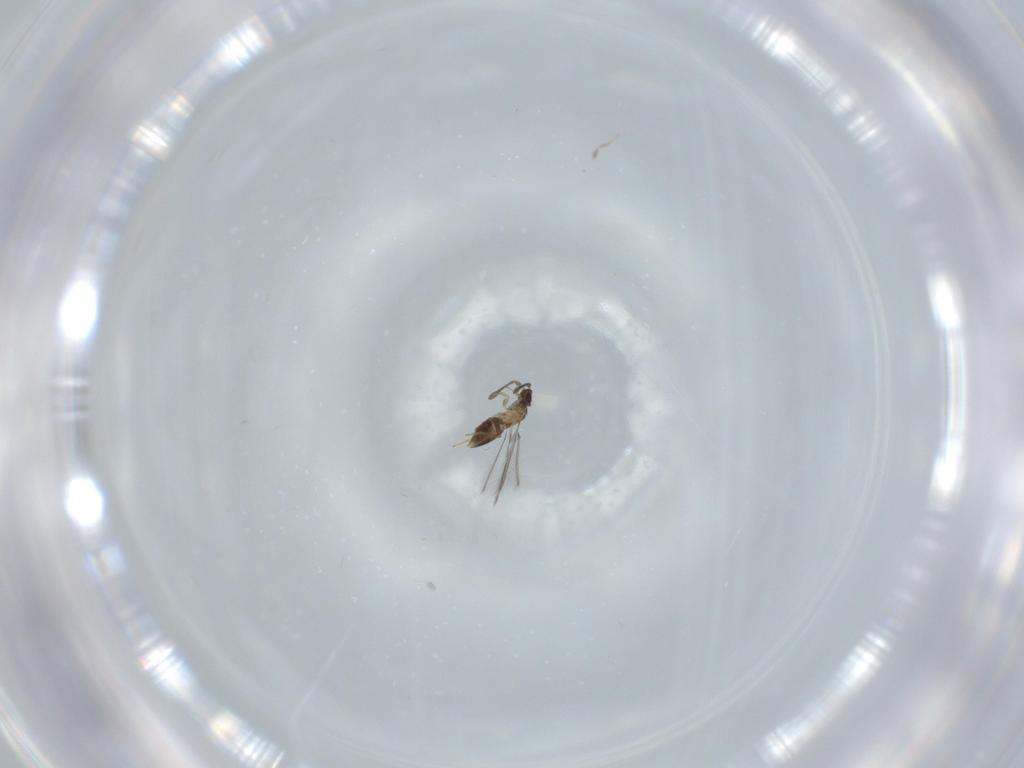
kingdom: Animalia
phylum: Arthropoda
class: Insecta
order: Hymenoptera
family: Mymaridae
